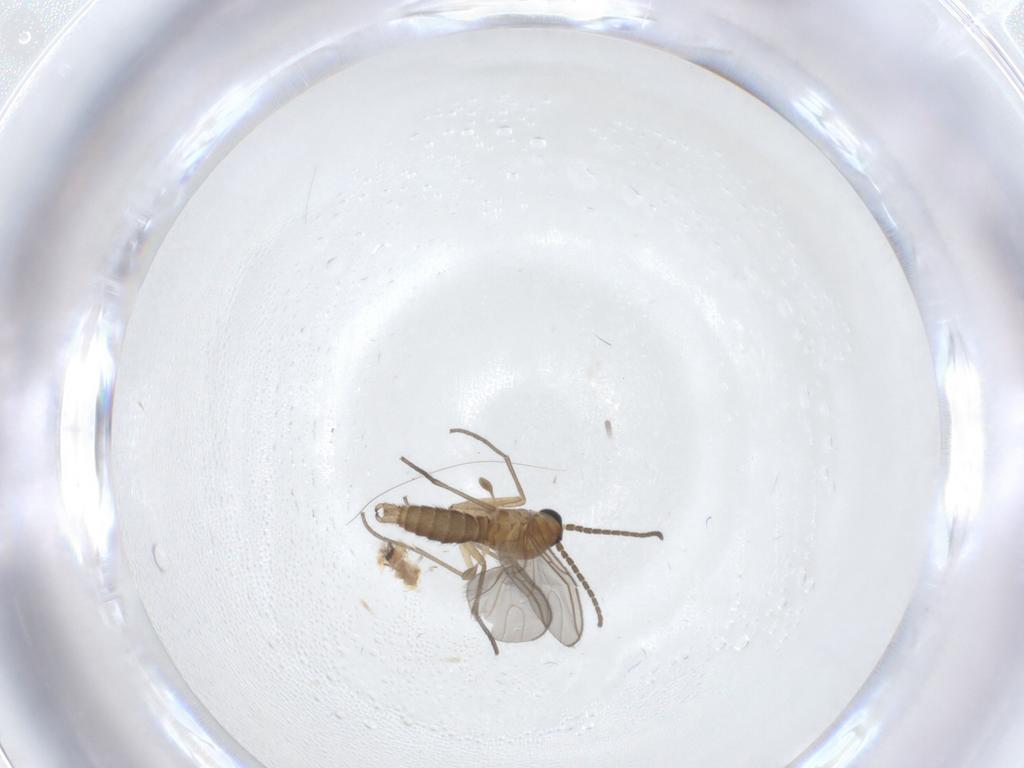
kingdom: Animalia
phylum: Arthropoda
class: Insecta
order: Diptera
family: Sciaridae
